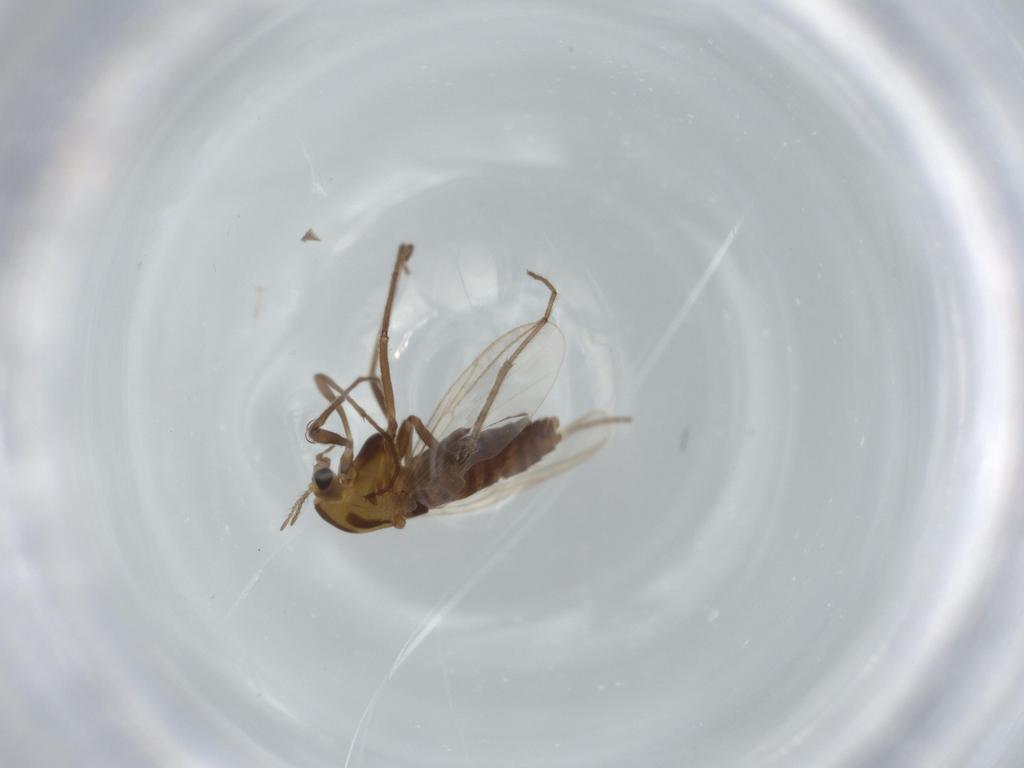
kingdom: Animalia
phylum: Arthropoda
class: Insecta
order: Diptera
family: Chironomidae
